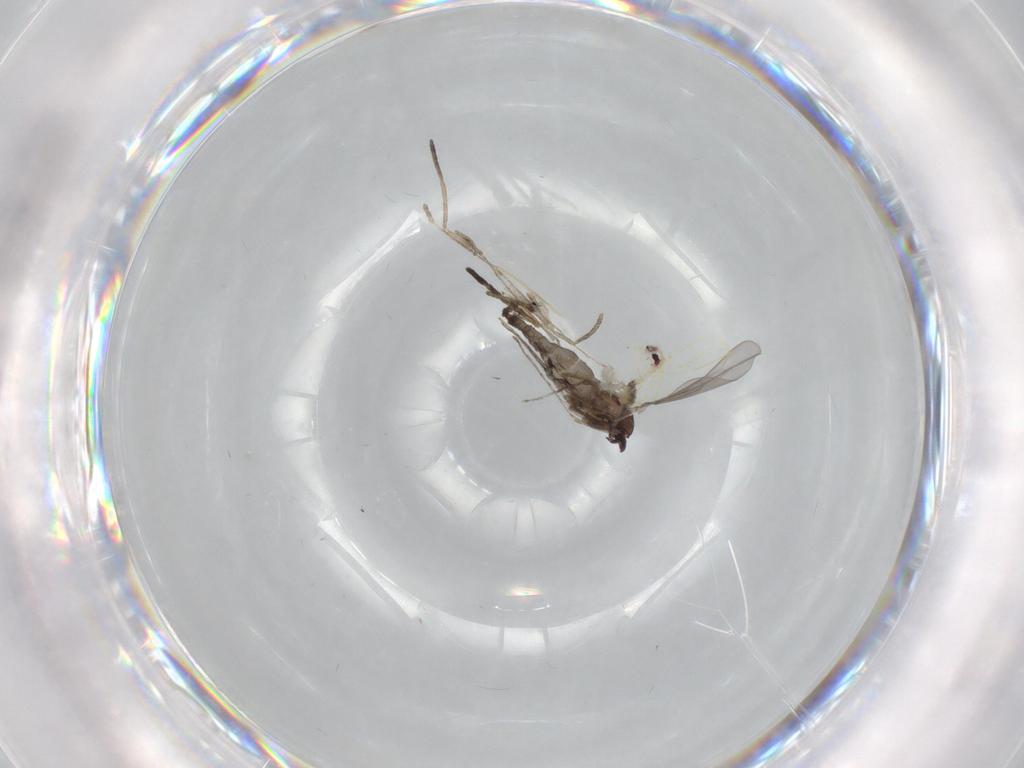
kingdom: Animalia
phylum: Arthropoda
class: Insecta
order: Diptera
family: Cecidomyiidae
